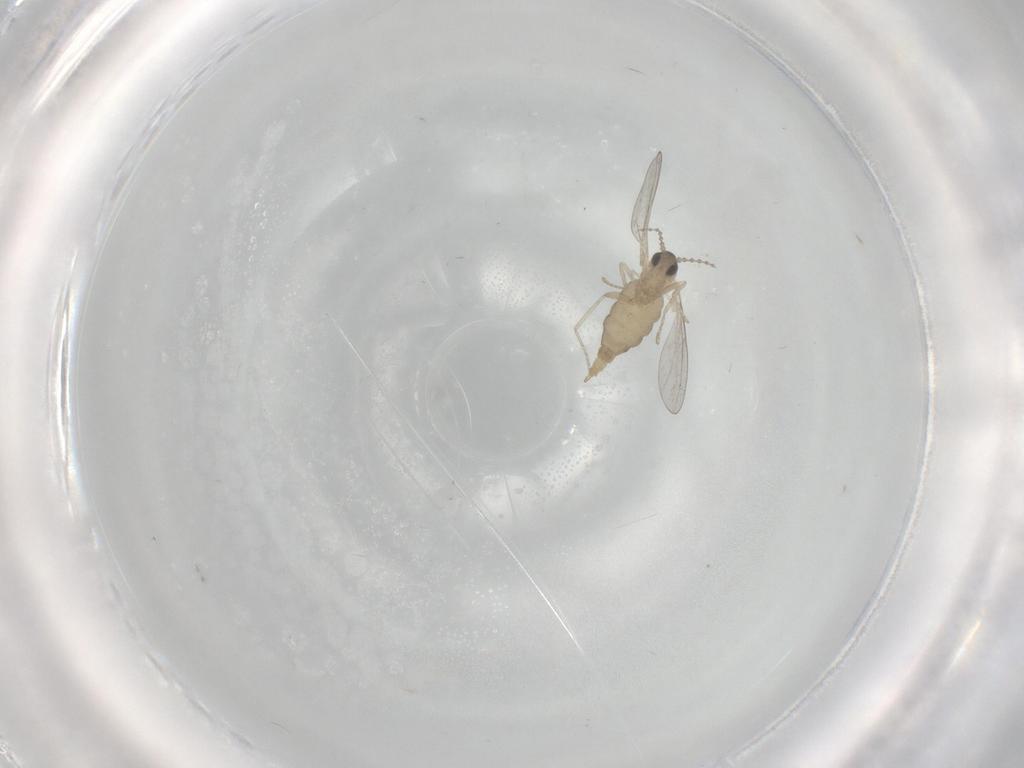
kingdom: Animalia
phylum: Arthropoda
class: Insecta
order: Diptera
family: Cecidomyiidae
